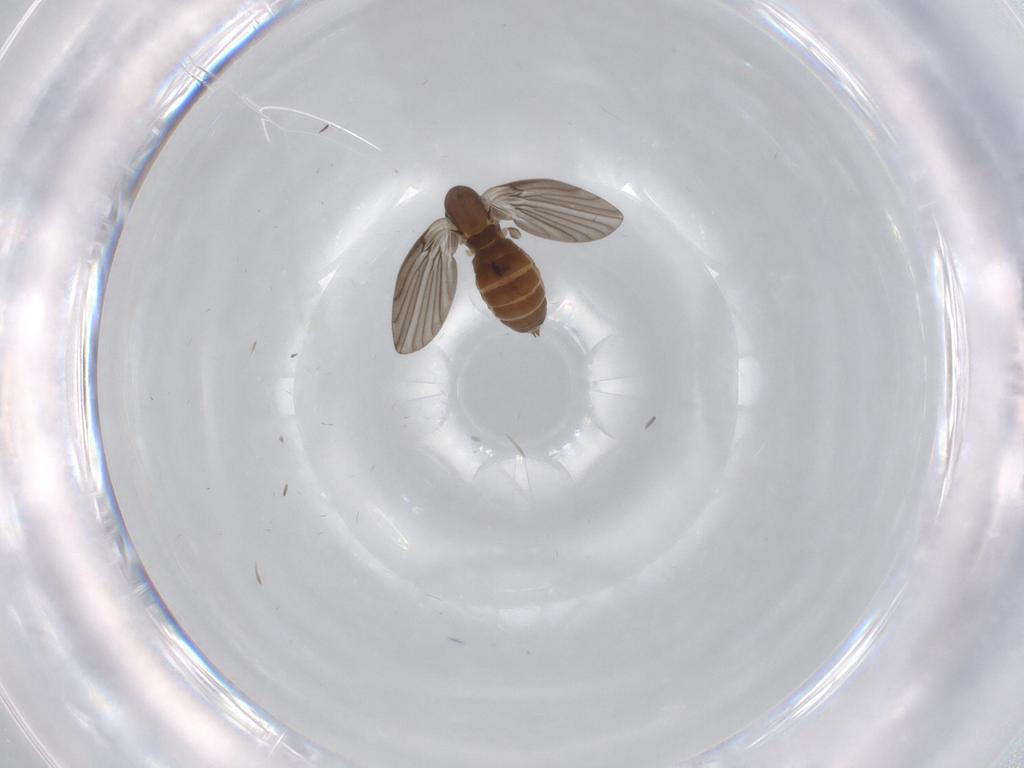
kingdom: Animalia
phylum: Arthropoda
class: Insecta
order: Diptera
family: Psychodidae
